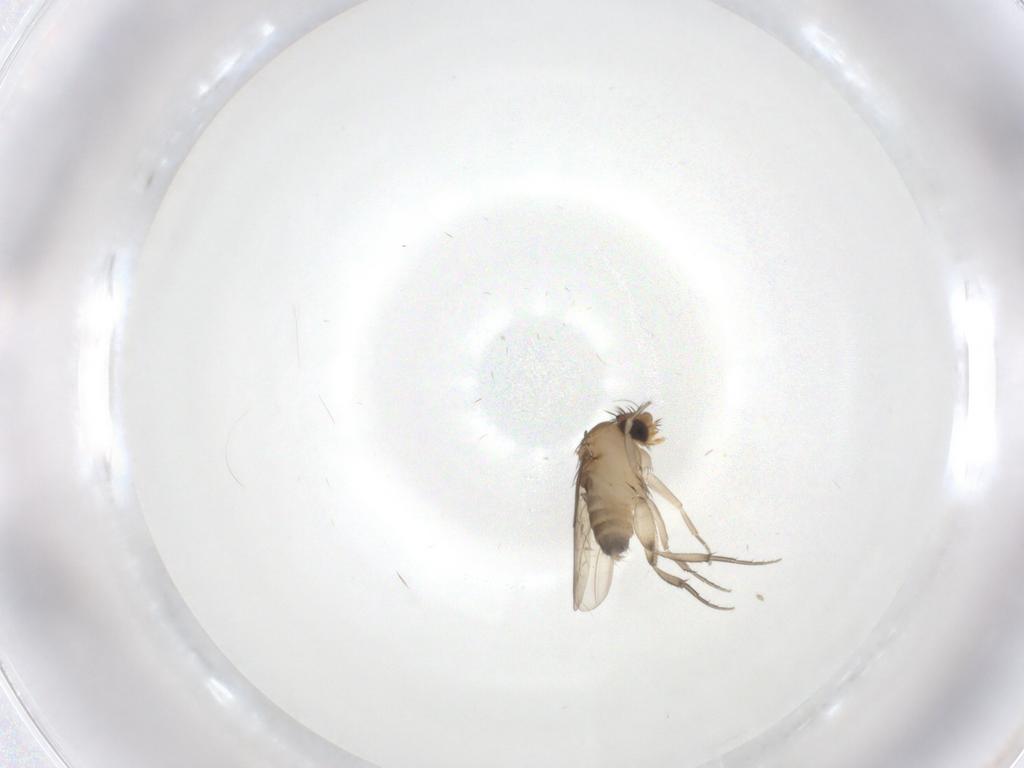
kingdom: Animalia
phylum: Arthropoda
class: Insecta
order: Diptera
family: Phoridae
